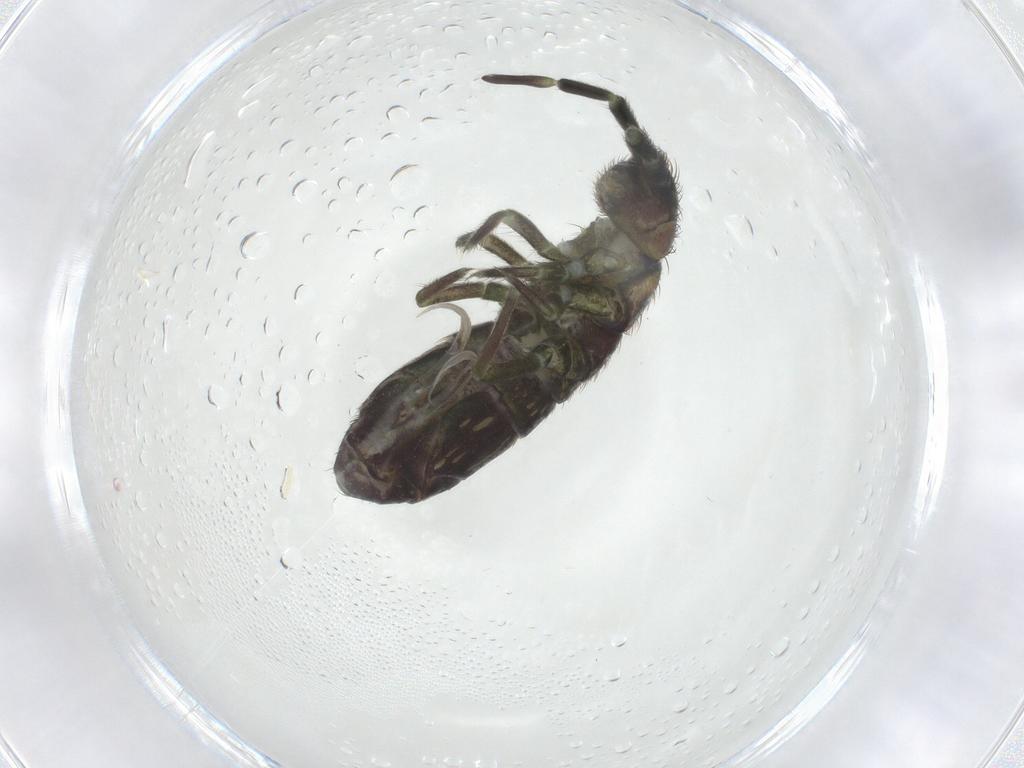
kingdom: Animalia
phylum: Arthropoda
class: Collembola
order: Entomobryomorpha
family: Isotomidae
